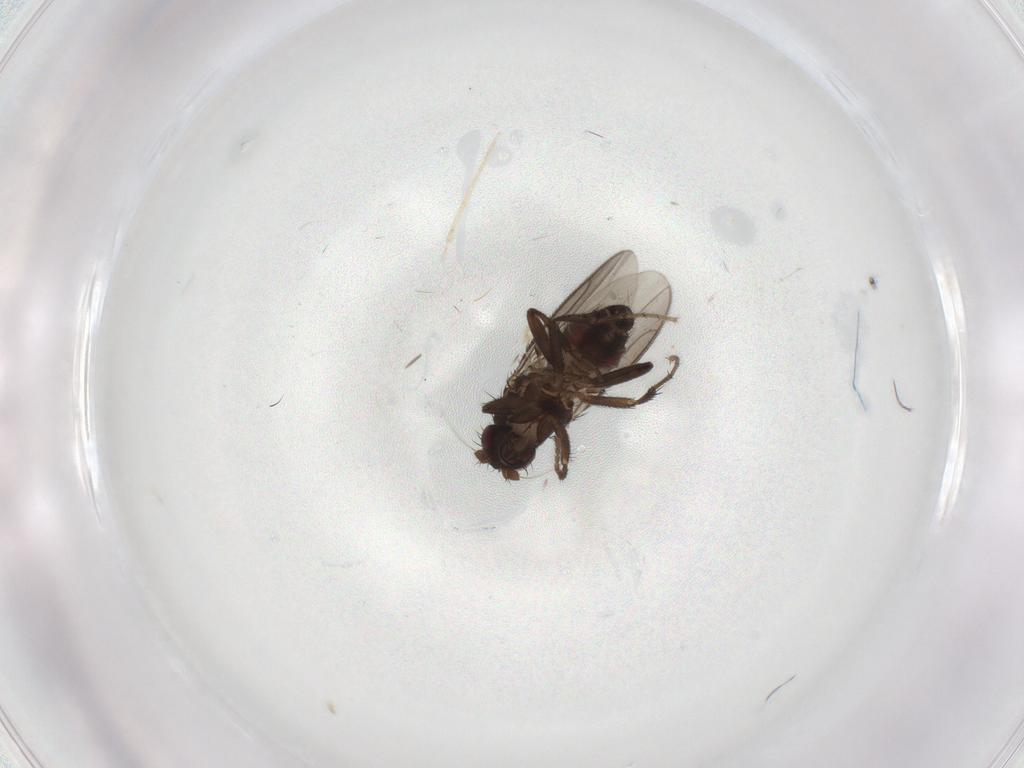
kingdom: Animalia
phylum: Arthropoda
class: Insecta
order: Diptera
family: Sphaeroceridae
